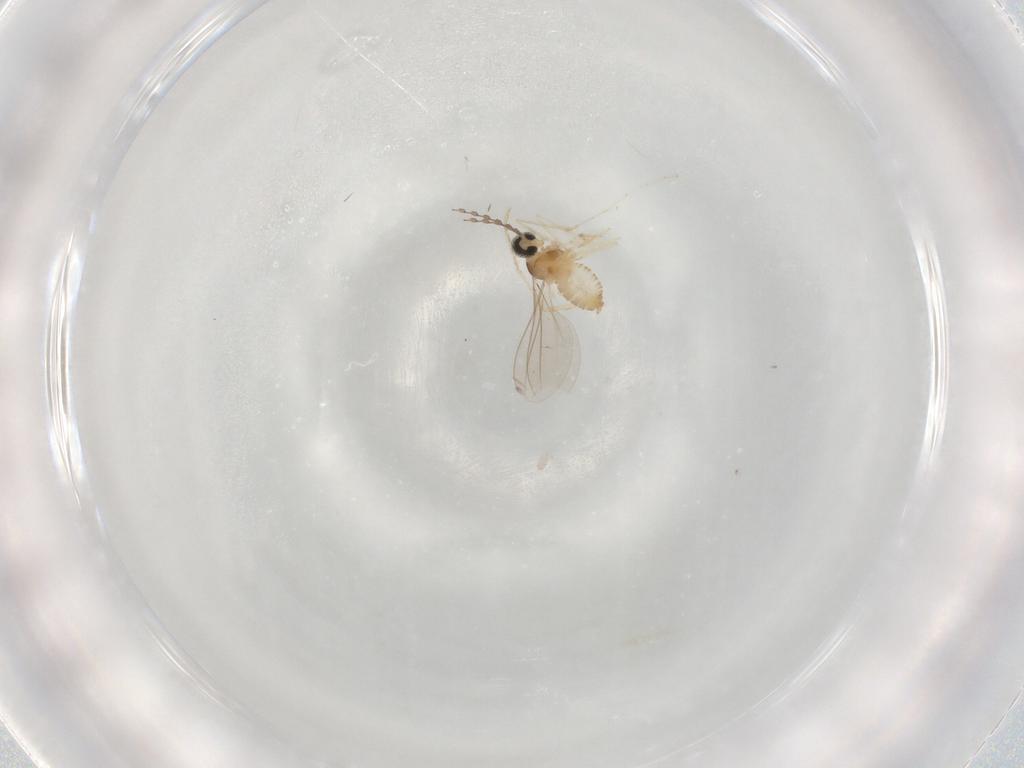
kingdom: Animalia
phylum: Arthropoda
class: Insecta
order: Diptera
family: Cecidomyiidae
